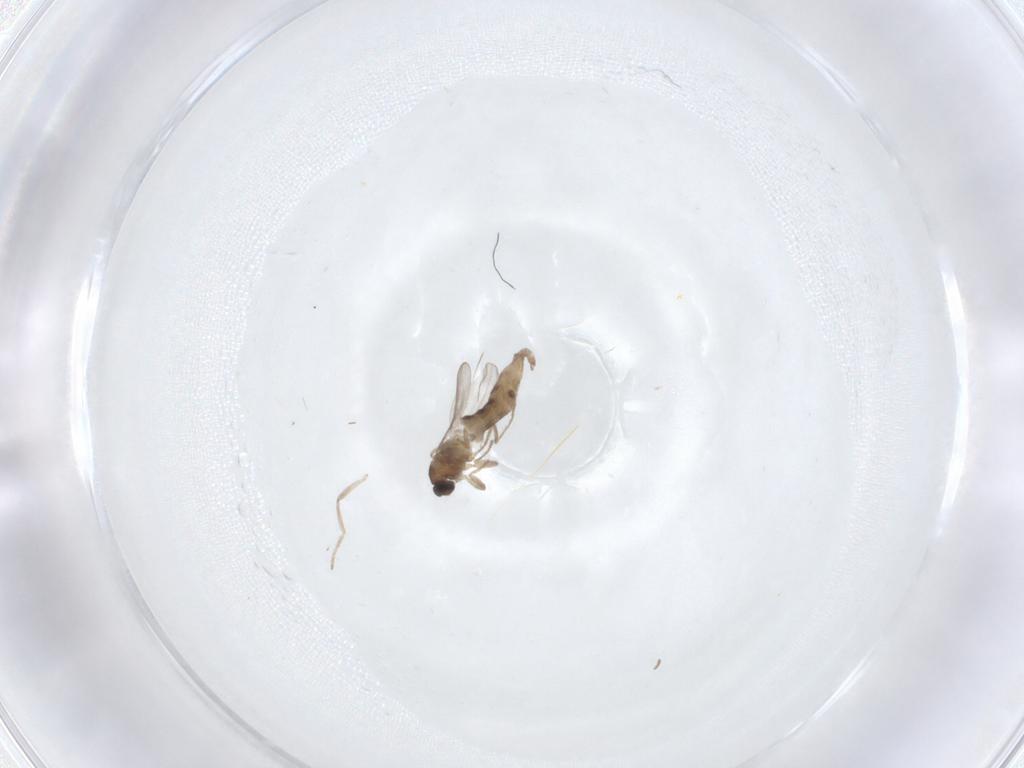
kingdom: Animalia
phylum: Arthropoda
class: Insecta
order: Diptera
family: Cecidomyiidae
